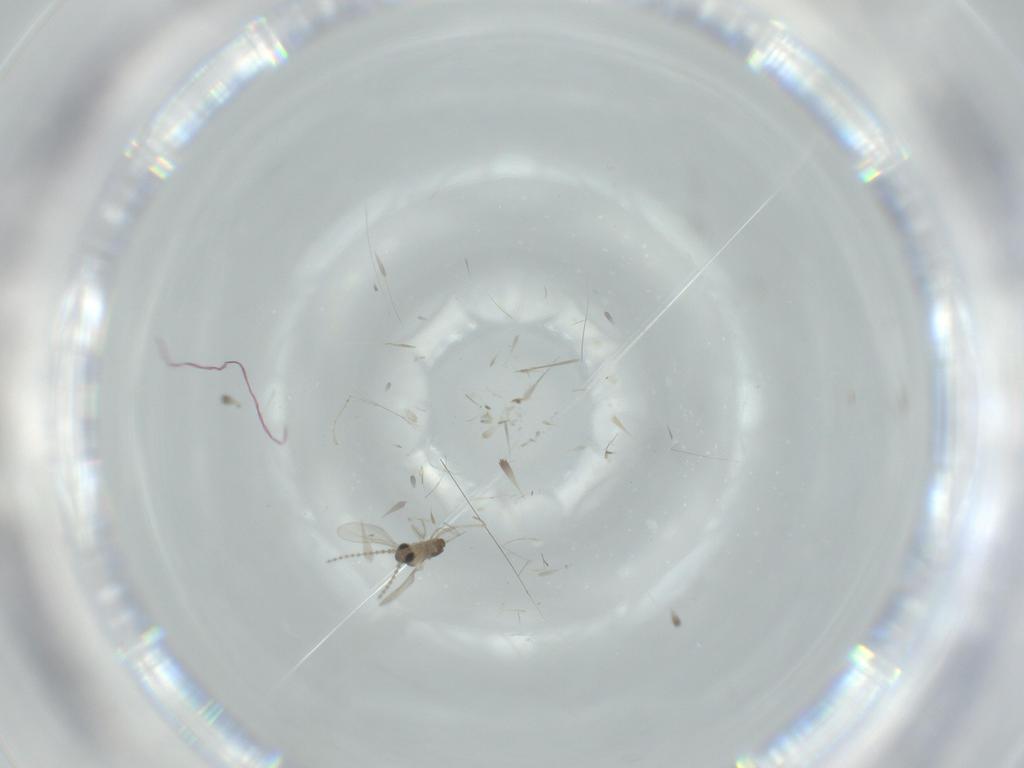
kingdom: Animalia
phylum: Arthropoda
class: Insecta
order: Diptera
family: Cecidomyiidae
